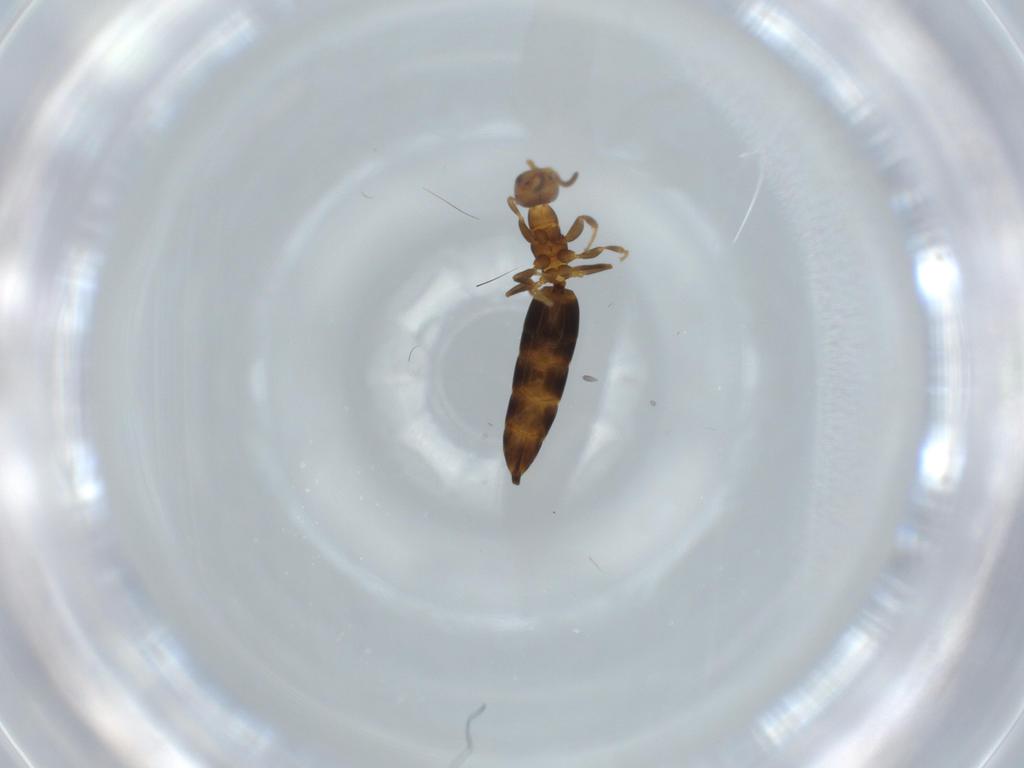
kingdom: Animalia
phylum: Arthropoda
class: Insecta
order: Hymenoptera
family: Bethylidae
